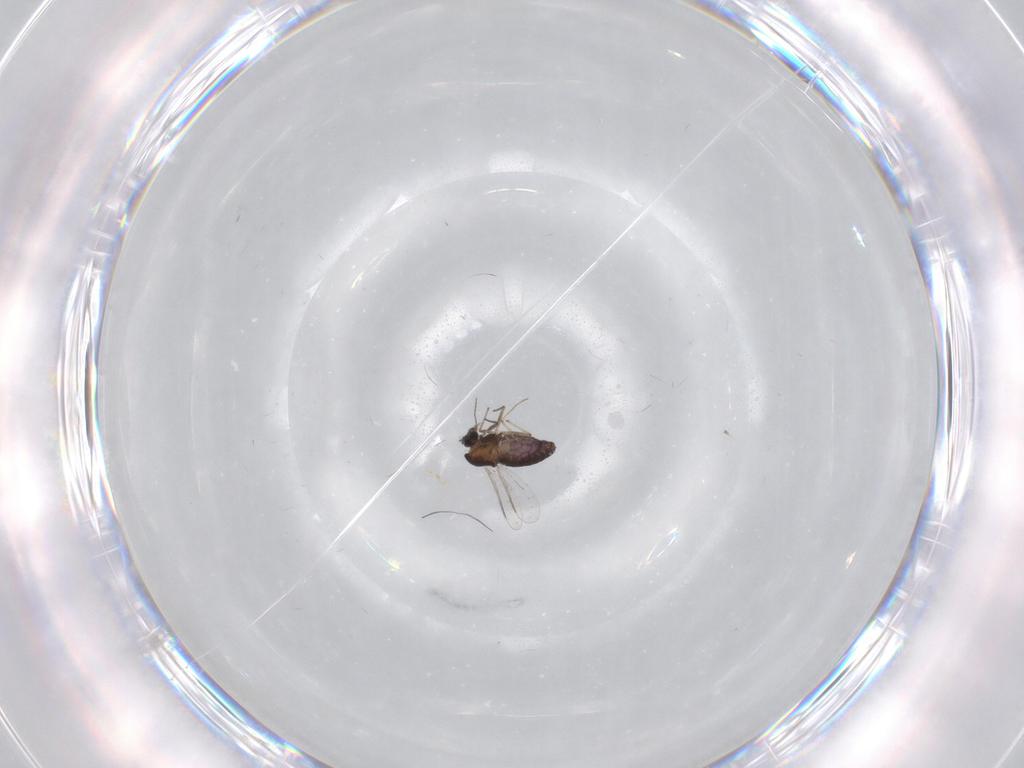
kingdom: Animalia
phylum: Arthropoda
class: Insecta
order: Diptera
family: Chironomidae
